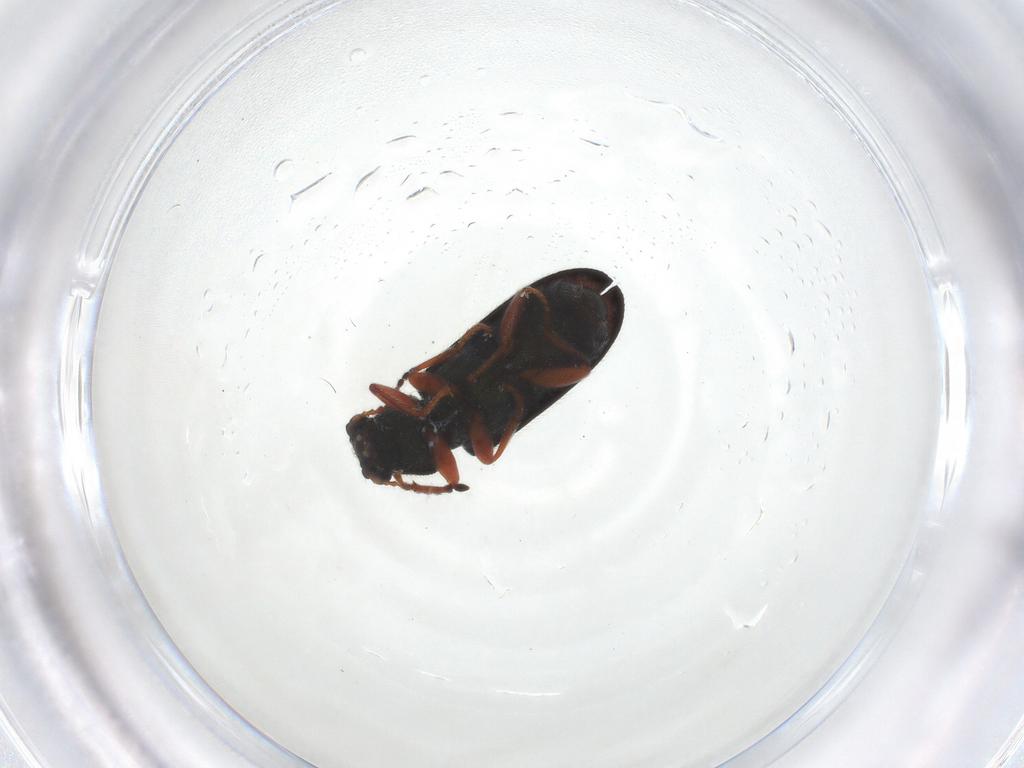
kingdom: Animalia
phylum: Arthropoda
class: Insecta
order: Coleoptera
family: Melyridae
